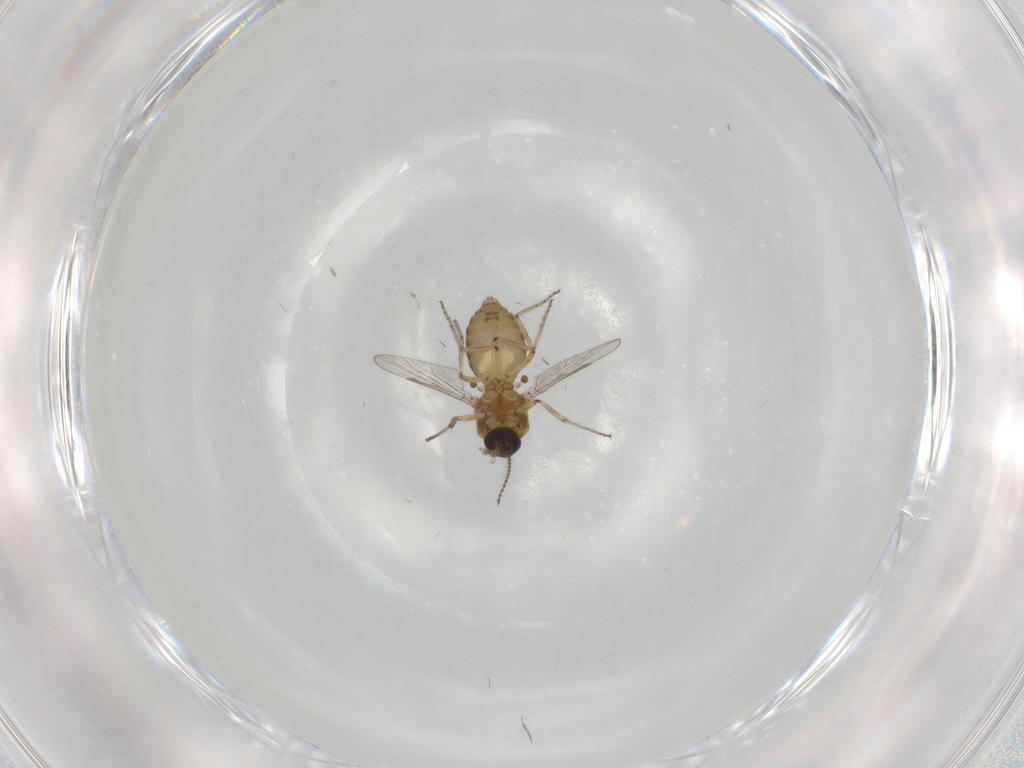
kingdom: Animalia
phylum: Arthropoda
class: Insecta
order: Diptera
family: Ceratopogonidae
